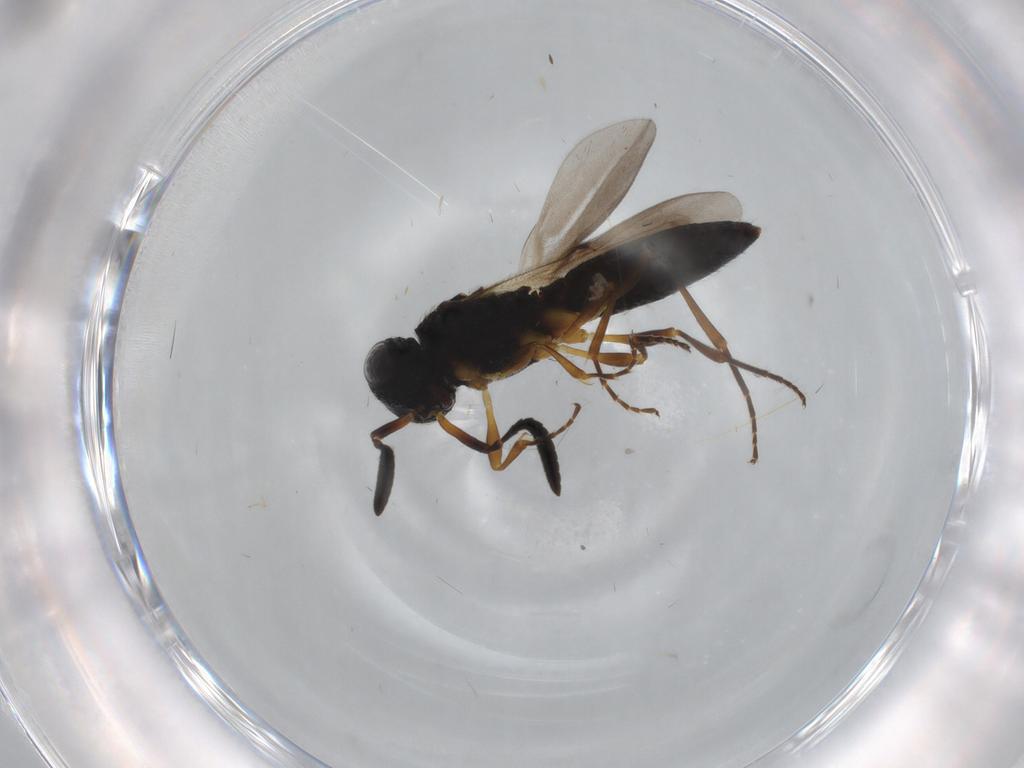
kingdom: Animalia
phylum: Arthropoda
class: Insecta
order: Hymenoptera
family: Scelionidae
